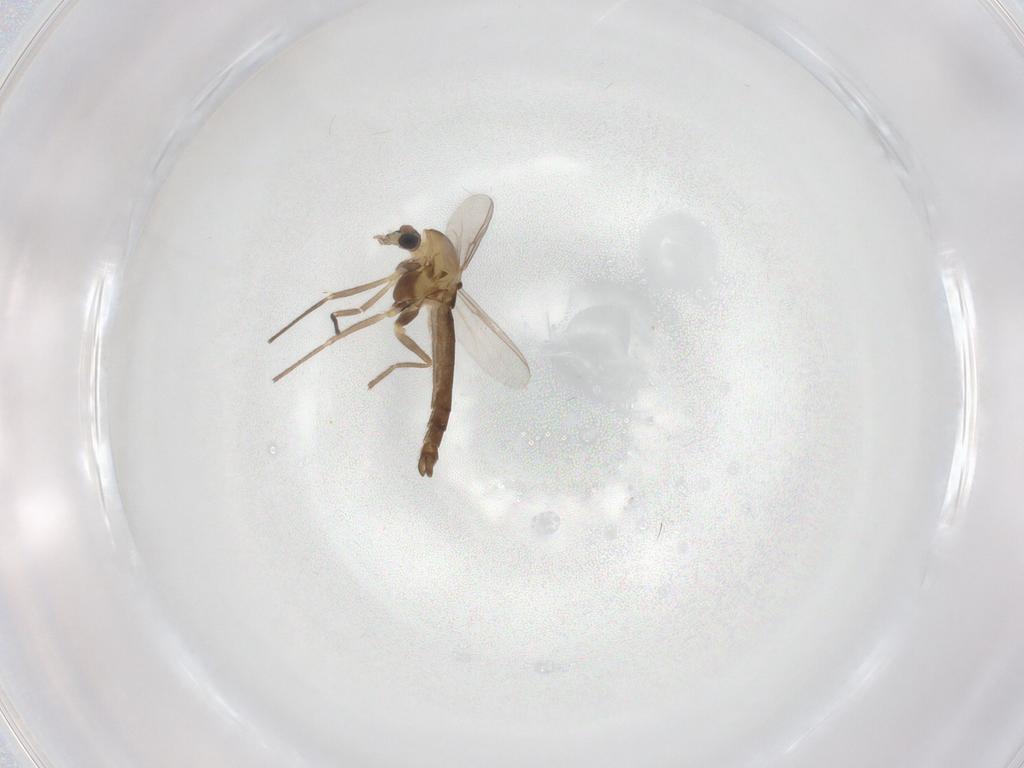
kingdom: Animalia
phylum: Arthropoda
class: Insecta
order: Diptera
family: Chironomidae
